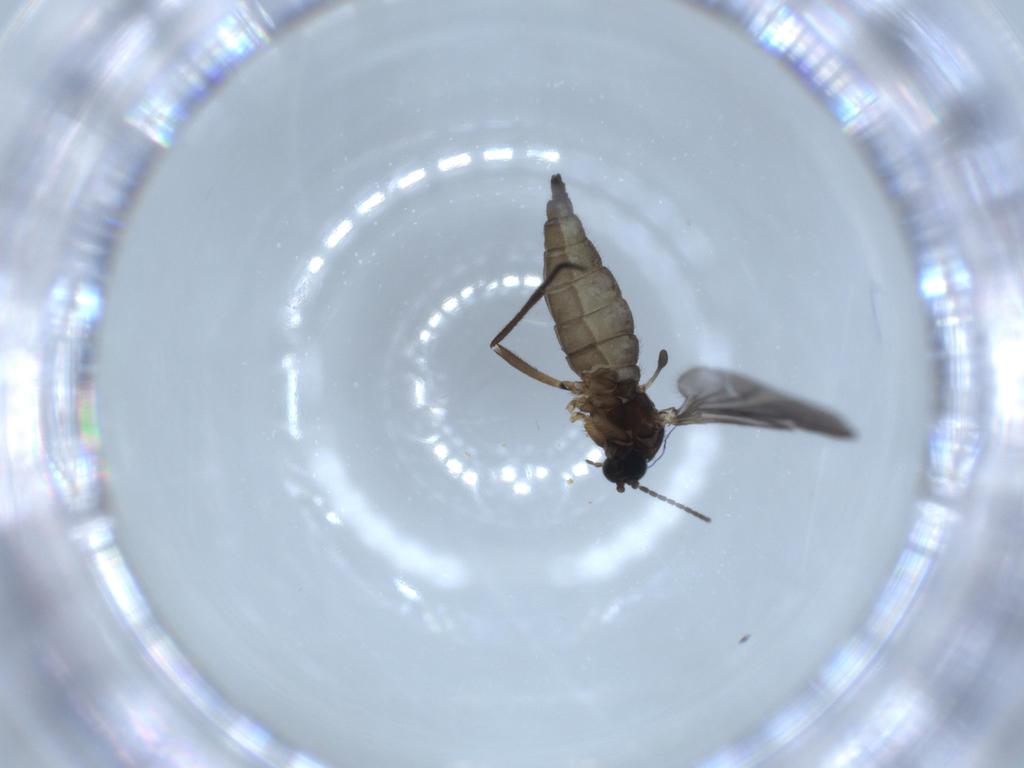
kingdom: Animalia
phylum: Arthropoda
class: Insecta
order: Diptera
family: Sciaridae
